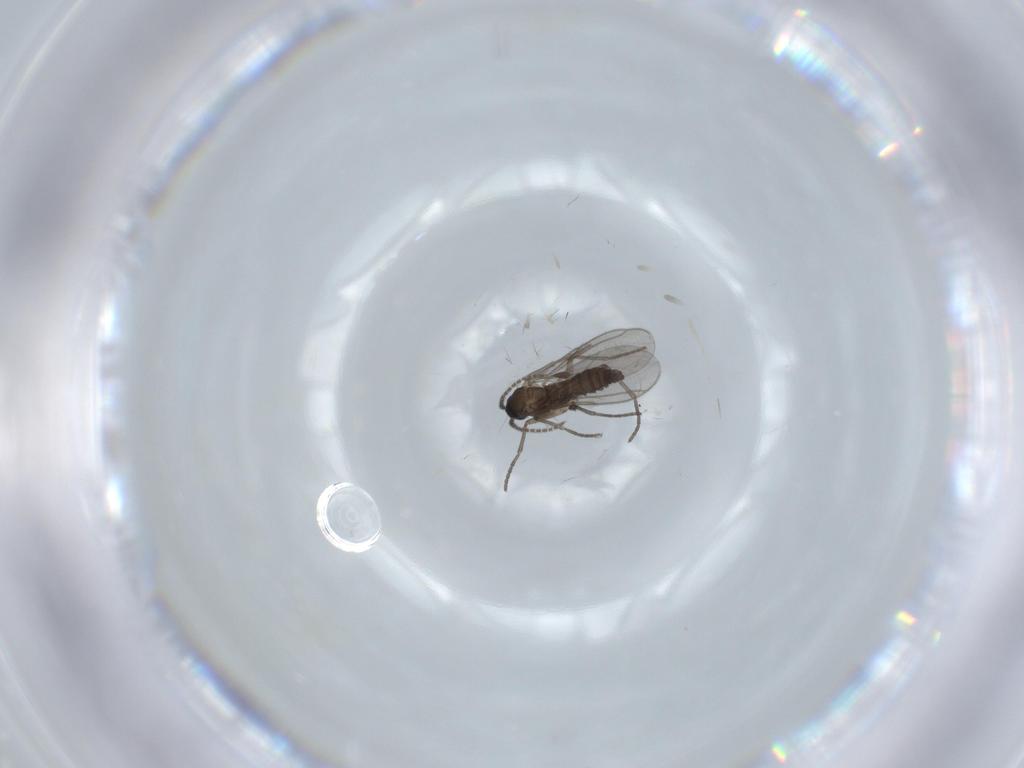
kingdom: Animalia
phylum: Arthropoda
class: Insecta
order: Diptera
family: Chironomidae
